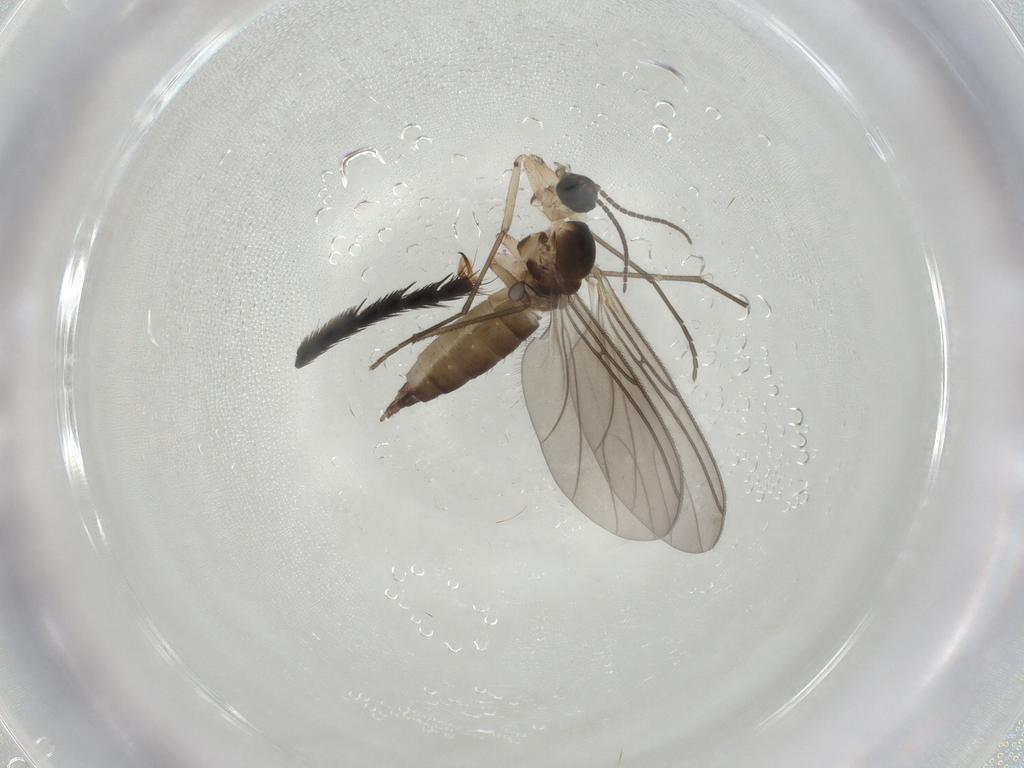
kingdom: Animalia
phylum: Arthropoda
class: Insecta
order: Diptera
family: Sciaridae
